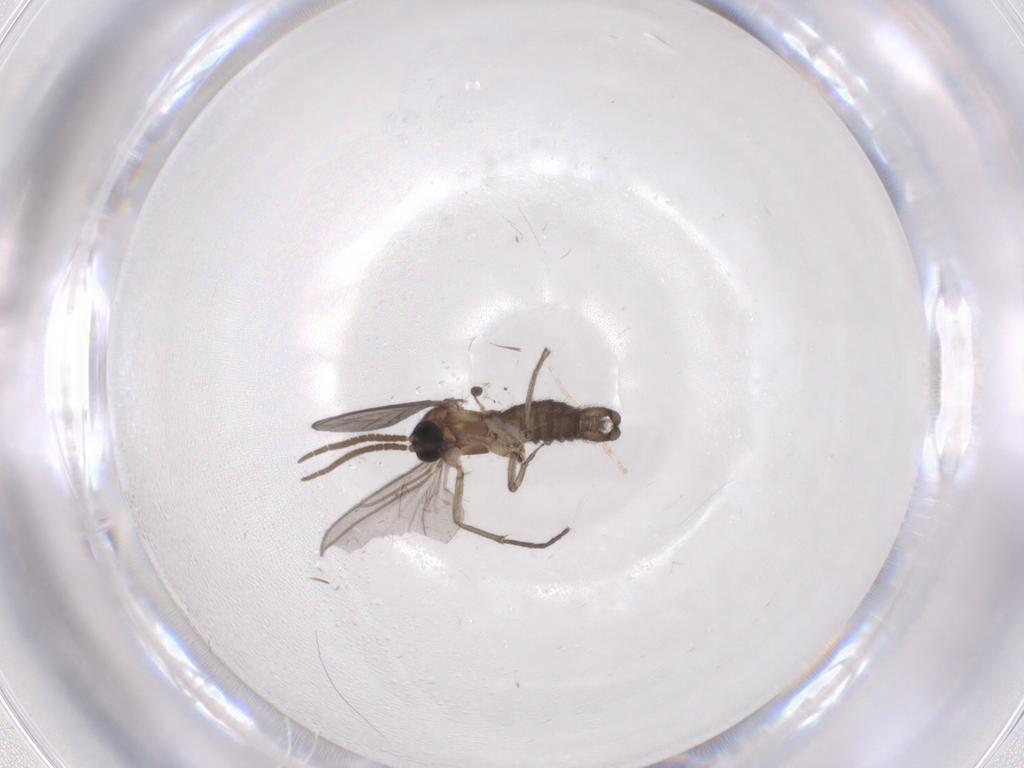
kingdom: Animalia
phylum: Arthropoda
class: Insecta
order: Diptera
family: Cecidomyiidae
